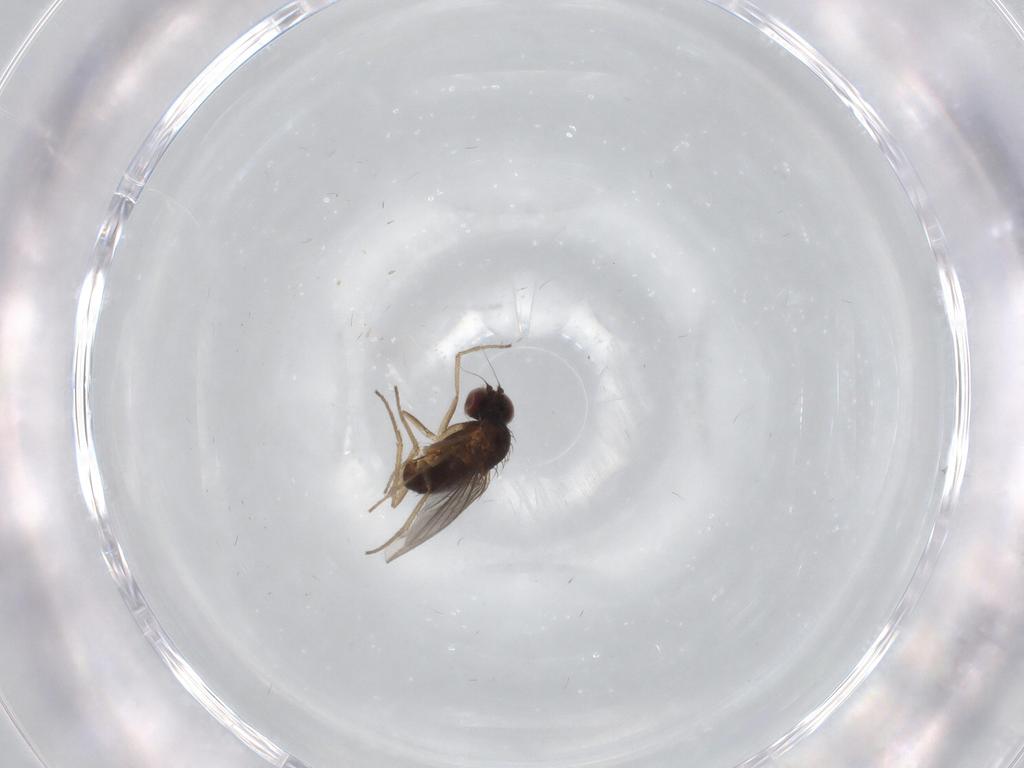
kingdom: Animalia
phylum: Arthropoda
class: Insecta
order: Diptera
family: Dolichopodidae
